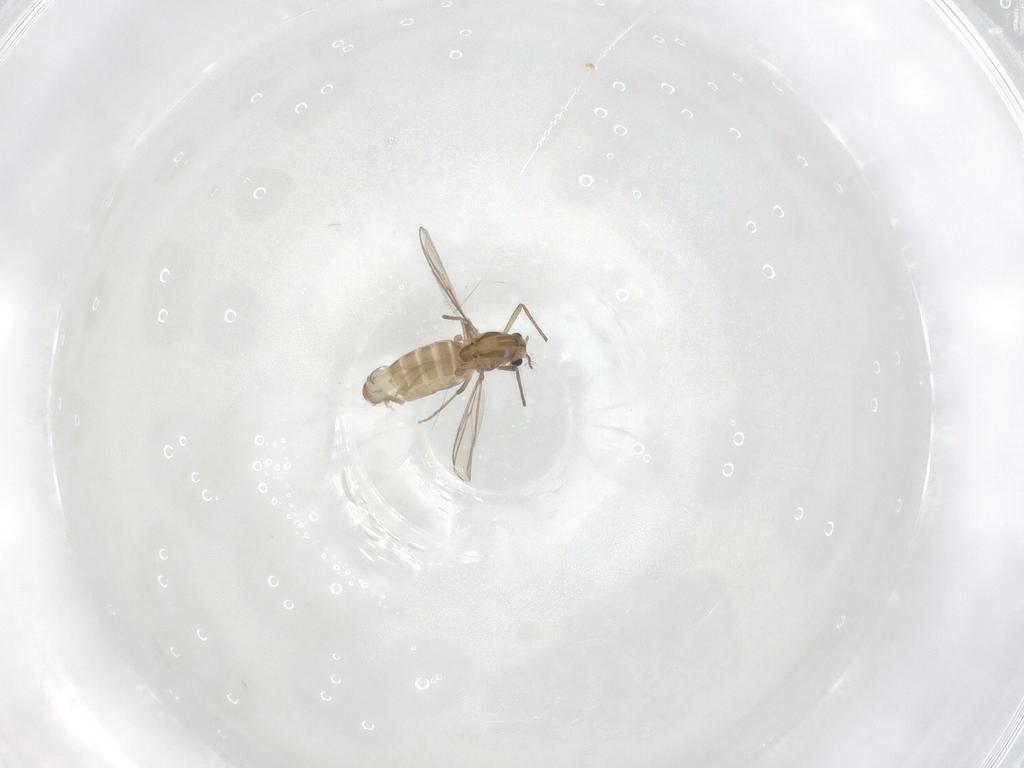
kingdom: Animalia
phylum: Arthropoda
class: Insecta
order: Diptera
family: Chironomidae
